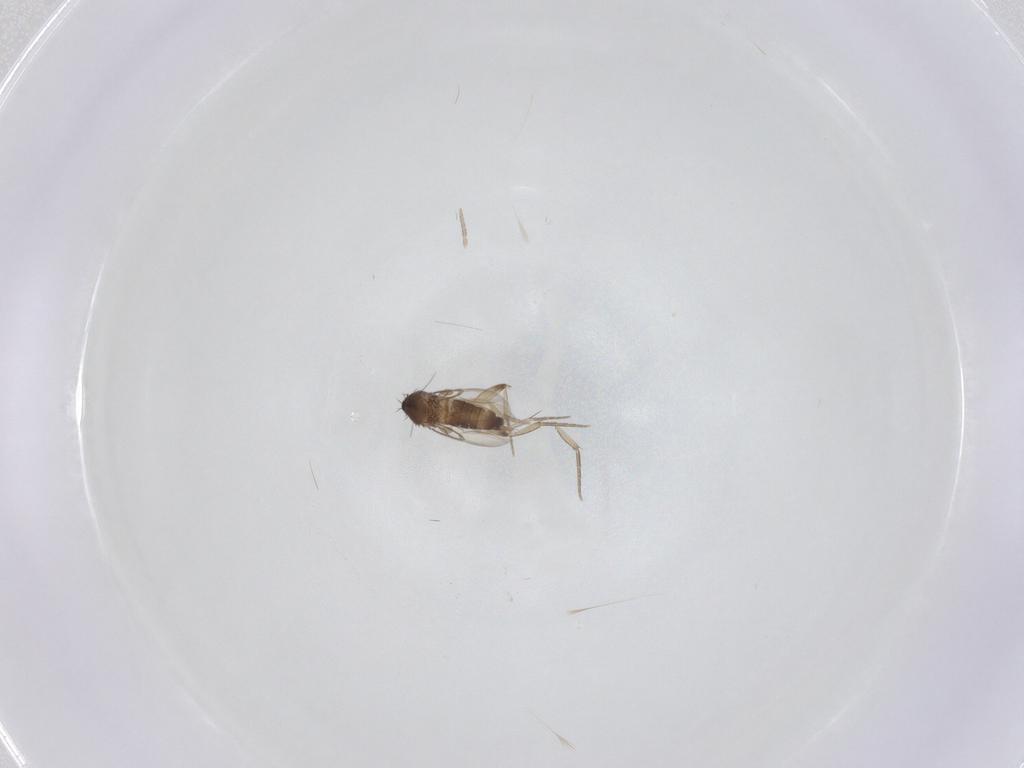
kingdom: Animalia
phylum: Arthropoda
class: Insecta
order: Diptera
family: Phoridae
